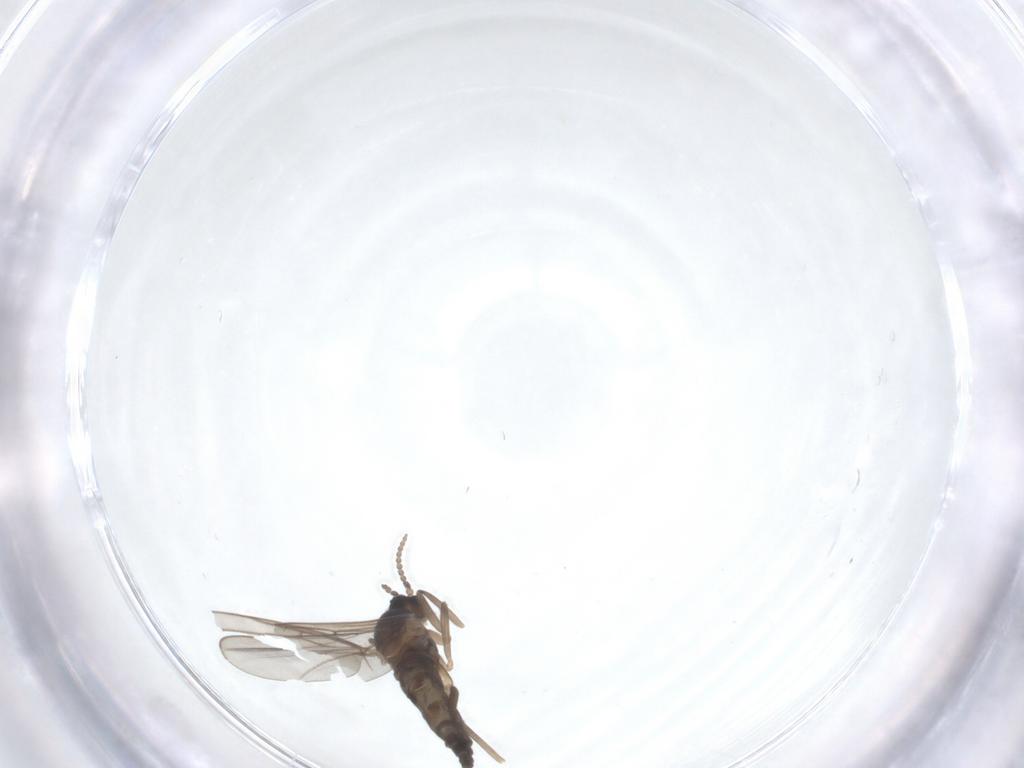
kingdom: Animalia
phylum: Arthropoda
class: Insecta
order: Diptera
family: Cecidomyiidae
